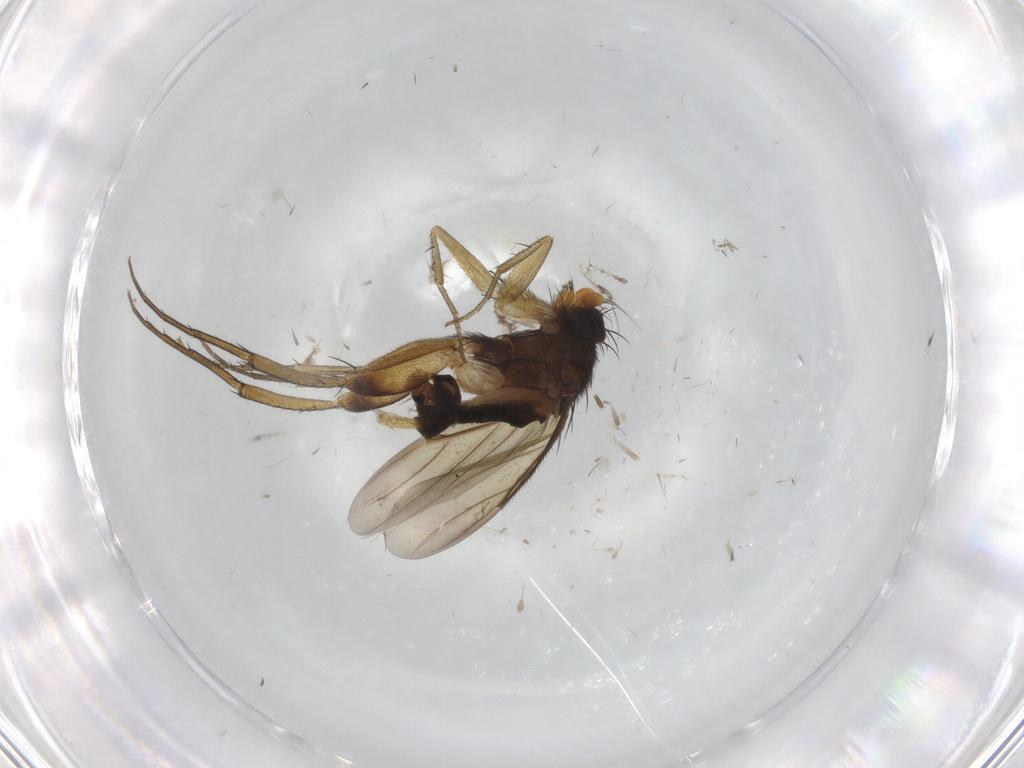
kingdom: Animalia
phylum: Arthropoda
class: Insecta
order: Diptera
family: Phoridae
